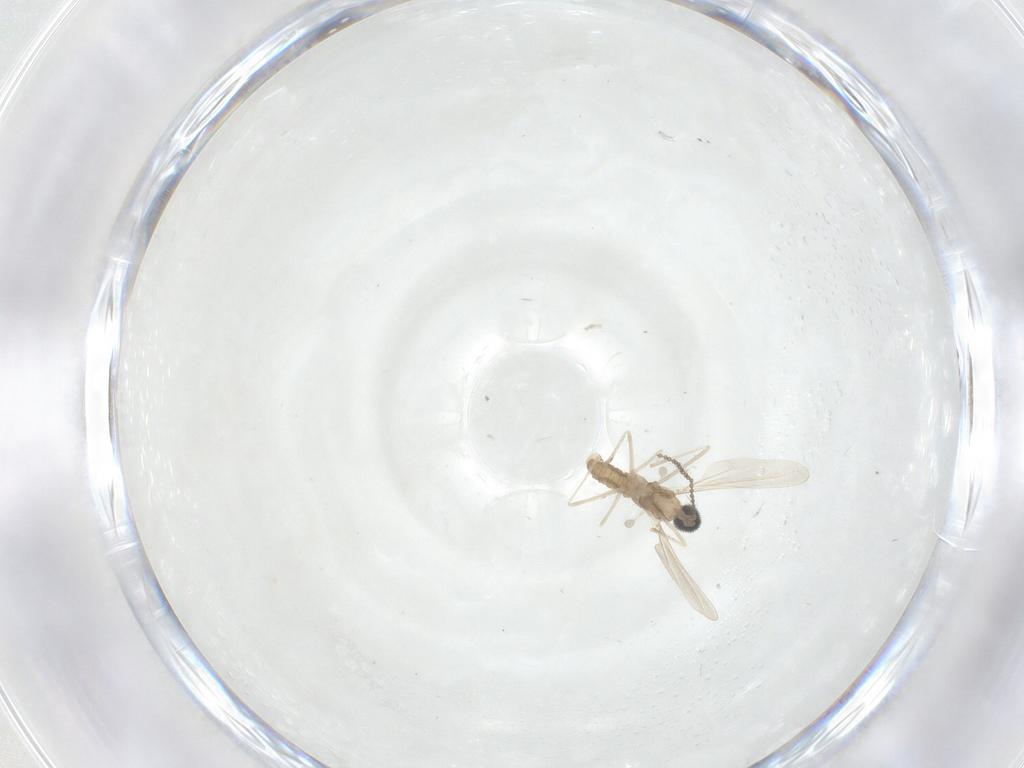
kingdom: Animalia
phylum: Arthropoda
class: Insecta
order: Diptera
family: Cecidomyiidae
